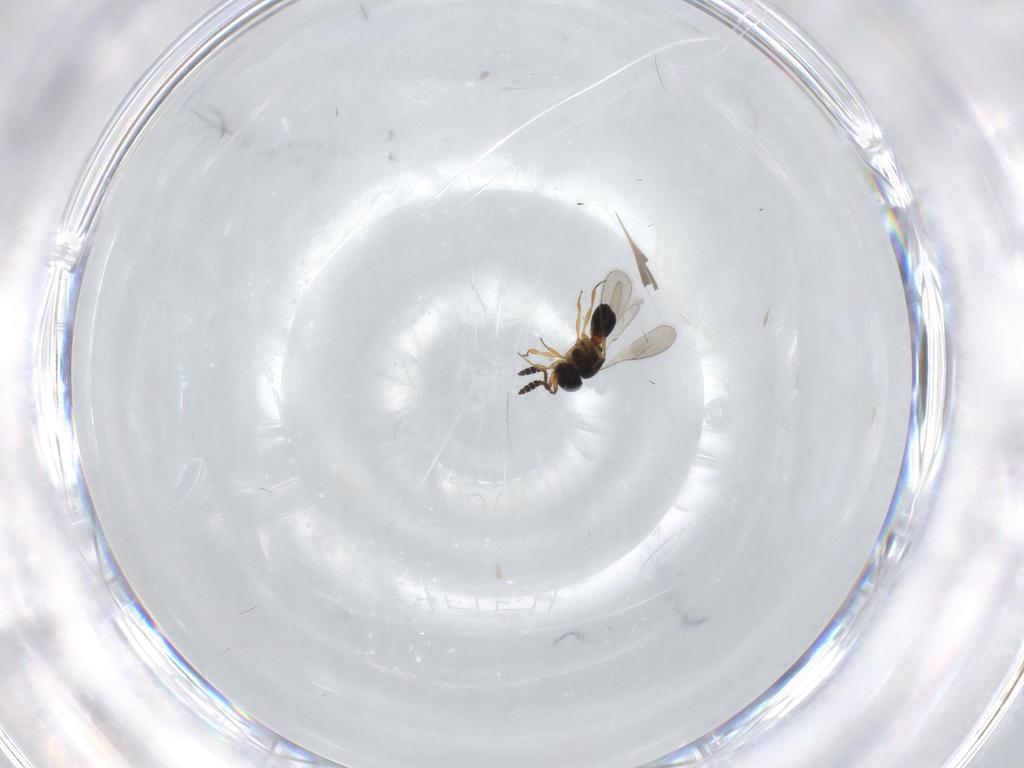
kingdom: Animalia
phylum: Arthropoda
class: Insecta
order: Hymenoptera
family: Scelionidae
